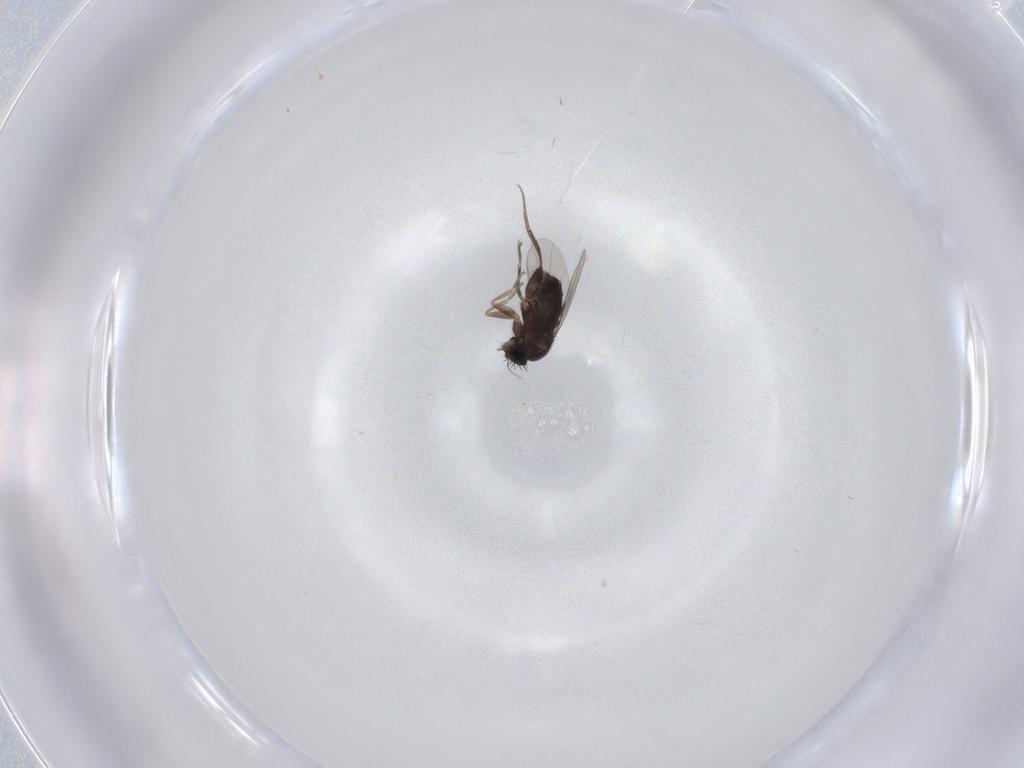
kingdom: Animalia
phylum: Arthropoda
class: Insecta
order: Diptera
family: Phoridae
